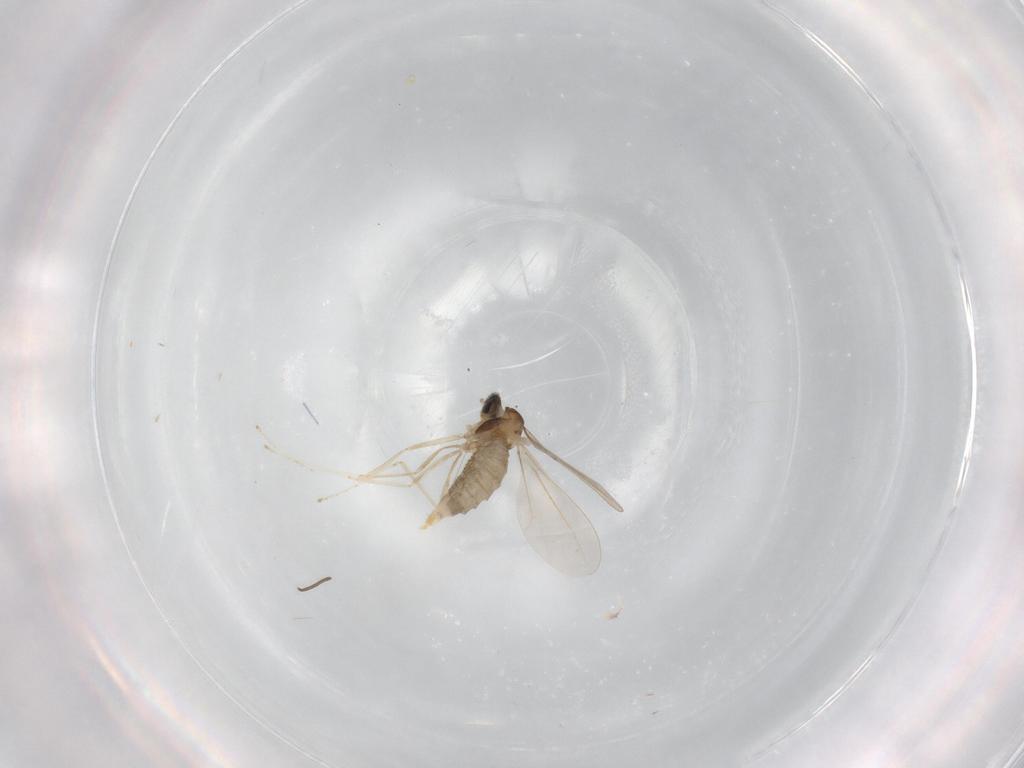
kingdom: Animalia
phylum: Arthropoda
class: Insecta
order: Diptera
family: Cecidomyiidae
